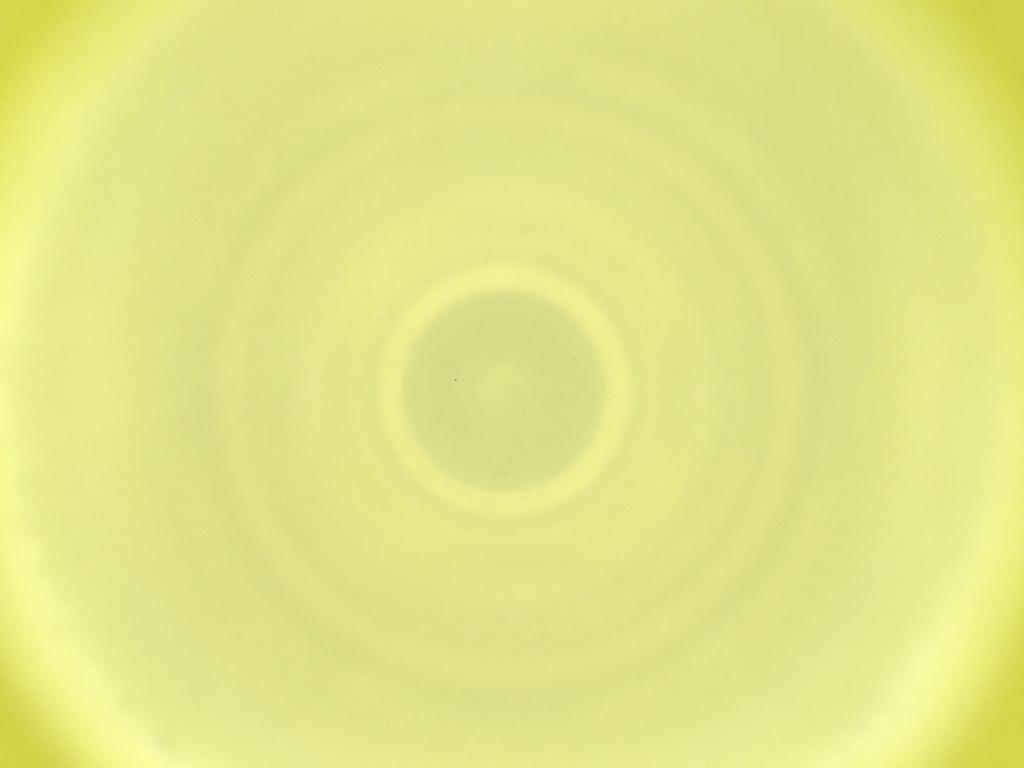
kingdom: Animalia
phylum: Arthropoda
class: Insecta
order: Diptera
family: Cecidomyiidae
